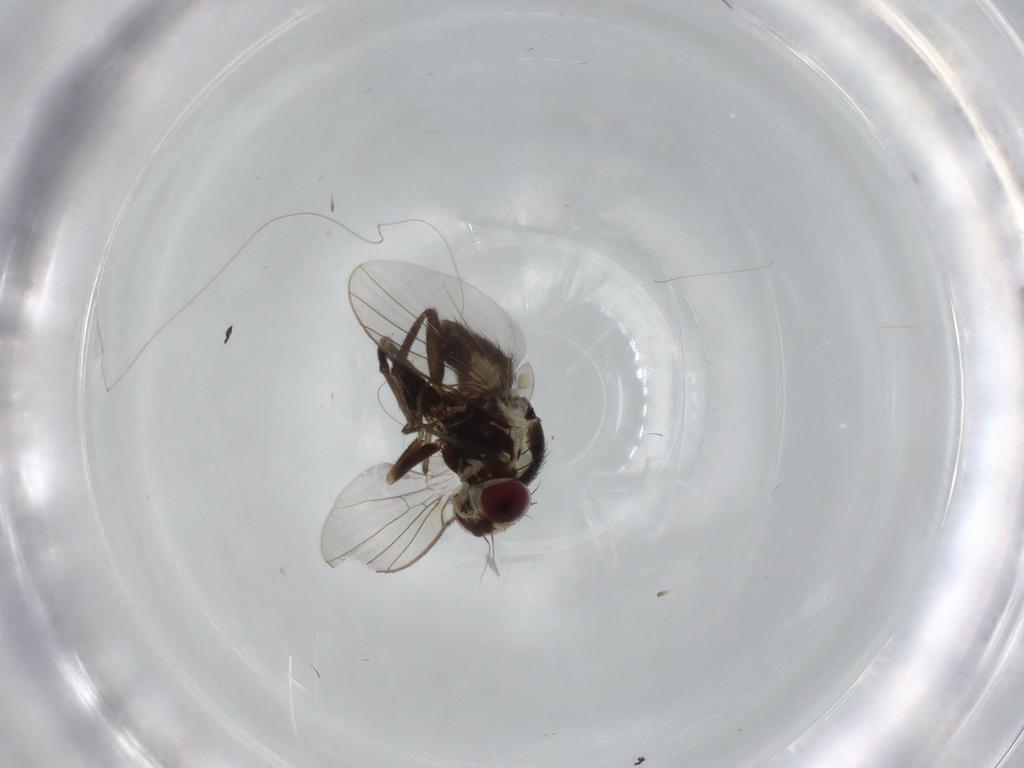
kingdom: Animalia
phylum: Arthropoda
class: Insecta
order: Diptera
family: Milichiidae
